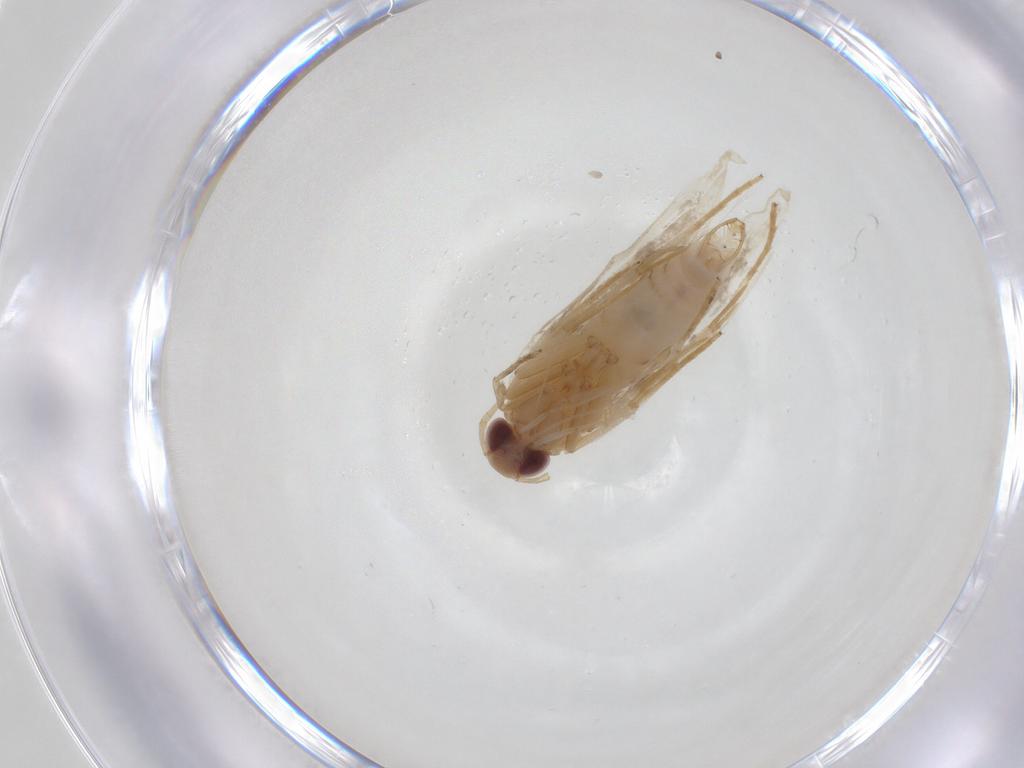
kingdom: Animalia
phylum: Arthropoda
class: Insecta
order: Lepidoptera
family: Cosmopterigidae
